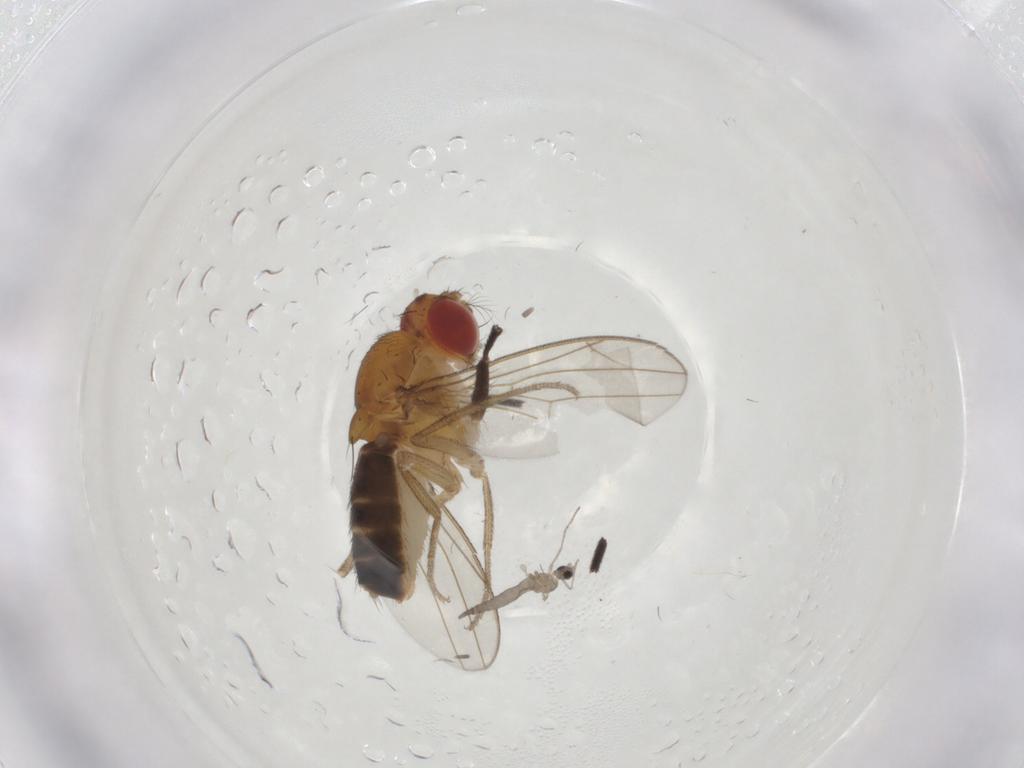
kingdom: Animalia
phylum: Arthropoda
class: Insecta
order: Diptera
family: Drosophilidae
